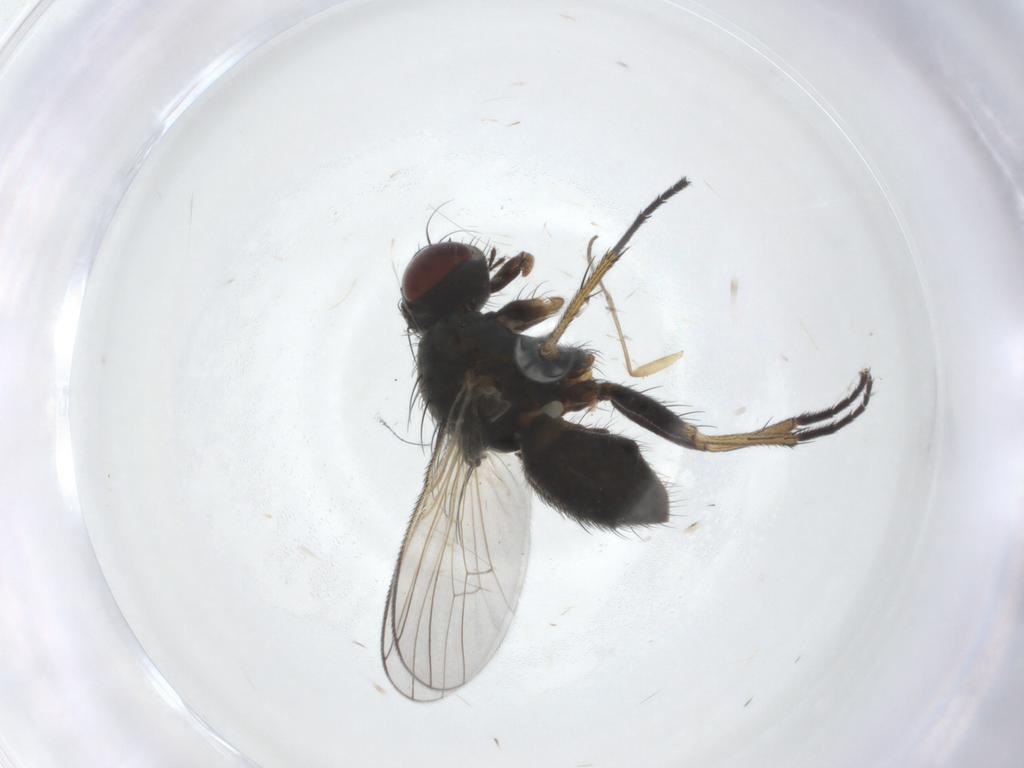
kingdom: Animalia
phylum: Arthropoda
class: Insecta
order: Diptera
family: Muscidae
